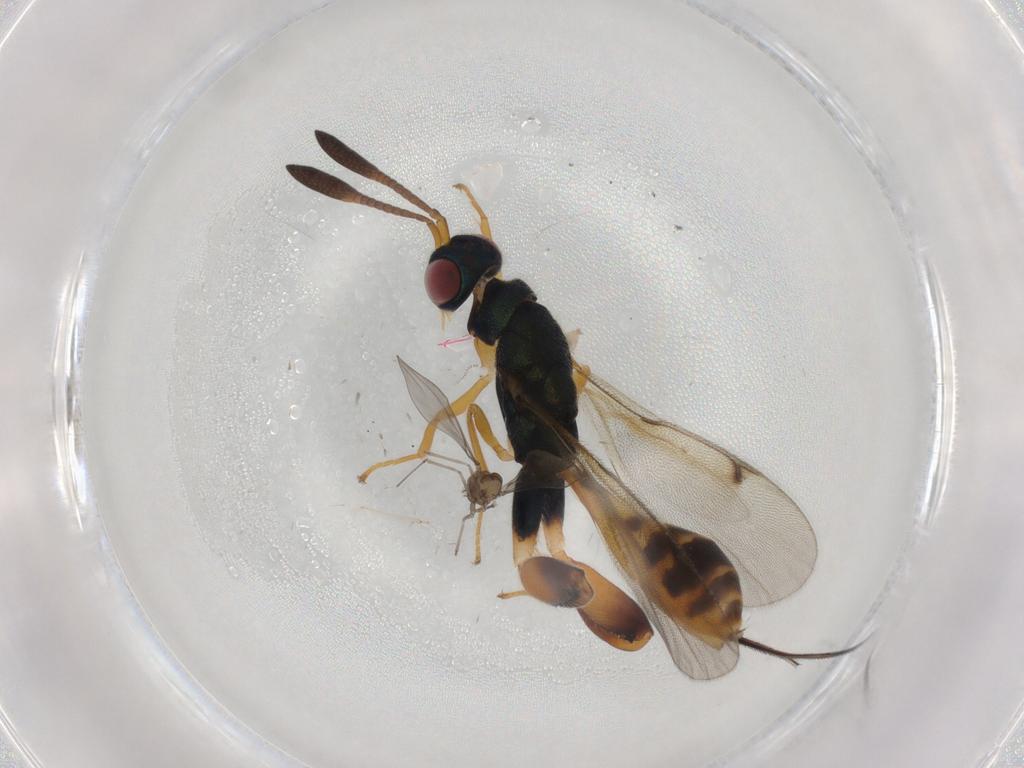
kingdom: Animalia
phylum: Arthropoda
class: Insecta
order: Diptera
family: Cecidomyiidae
